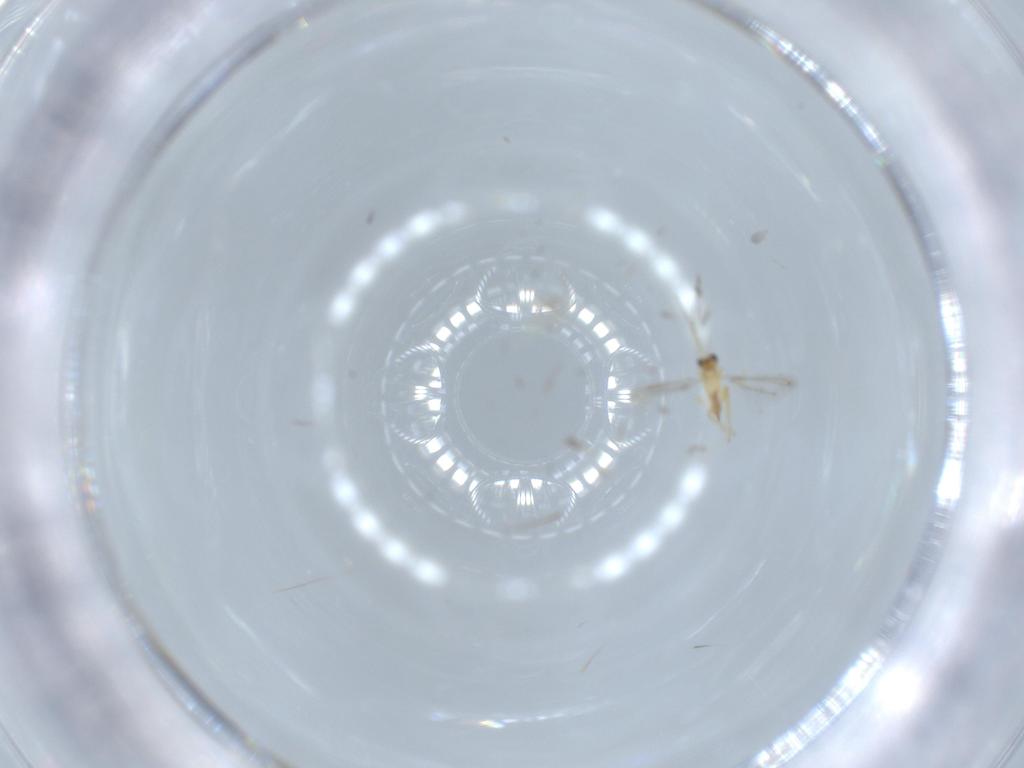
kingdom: Animalia
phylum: Arthropoda
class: Insecta
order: Hymenoptera
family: Mymaridae
